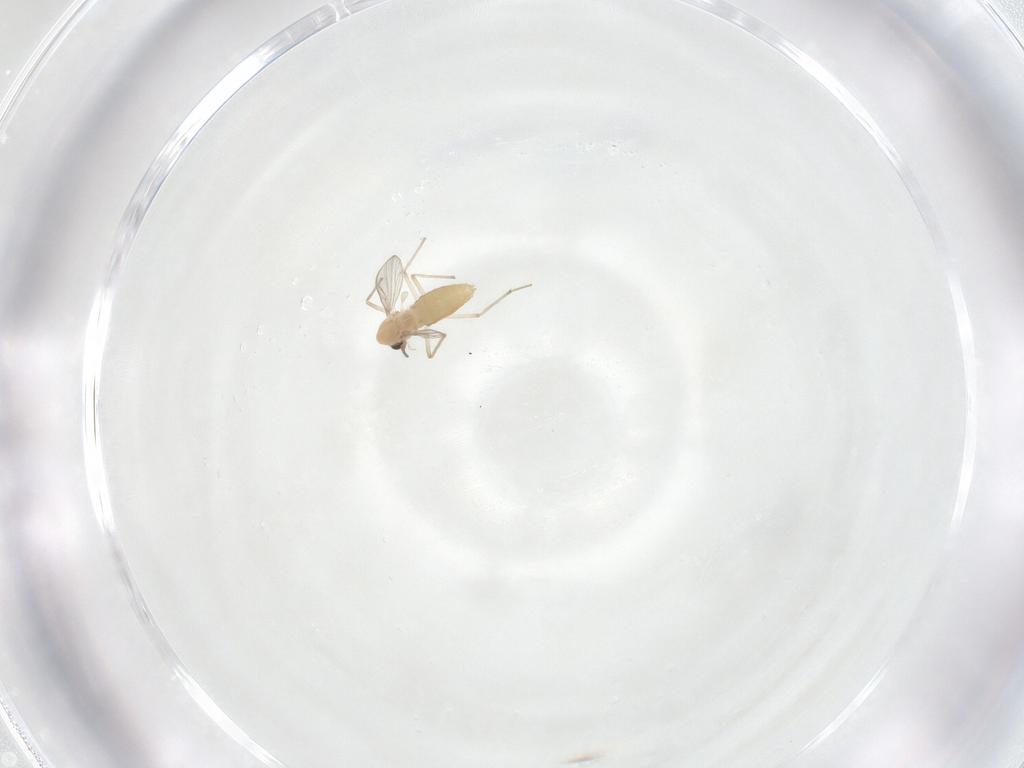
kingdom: Animalia
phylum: Arthropoda
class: Insecta
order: Diptera
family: Chironomidae
